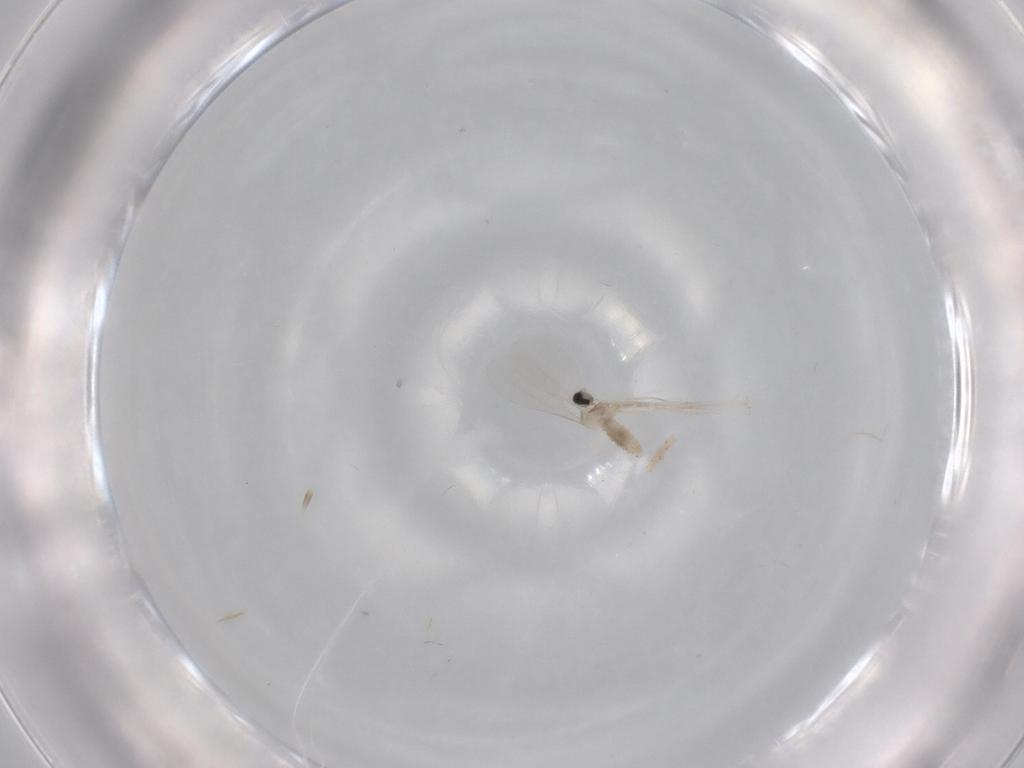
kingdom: Animalia
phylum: Arthropoda
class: Insecta
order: Diptera
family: Cecidomyiidae
